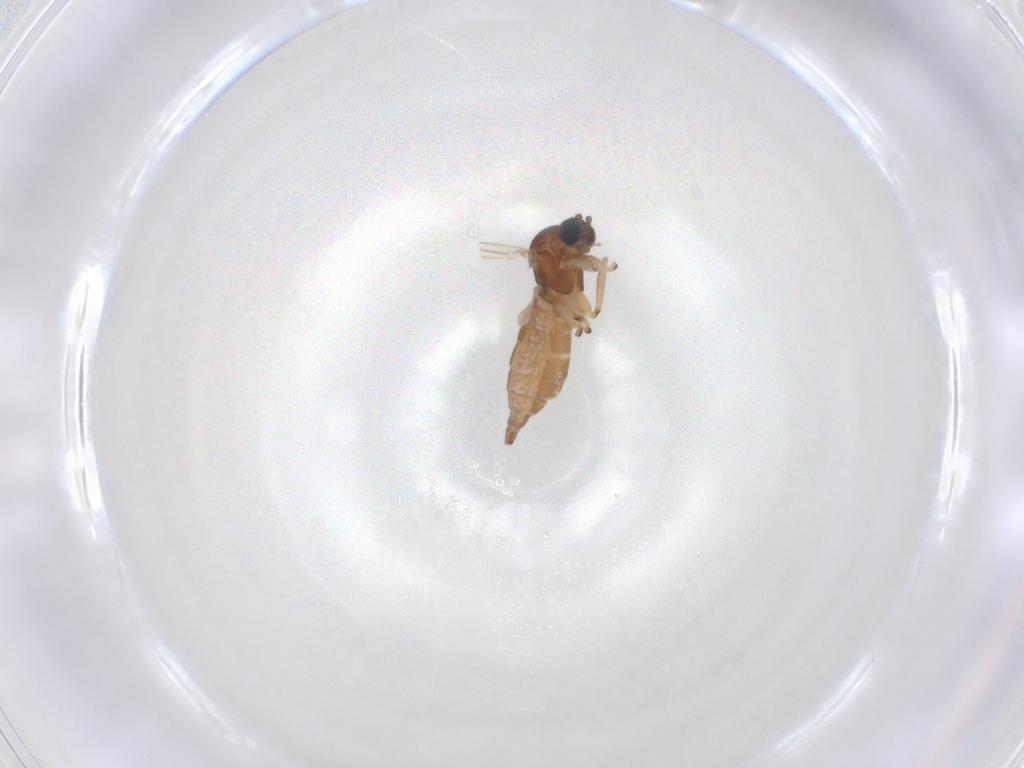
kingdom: Animalia
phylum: Arthropoda
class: Insecta
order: Diptera
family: Sciaridae
